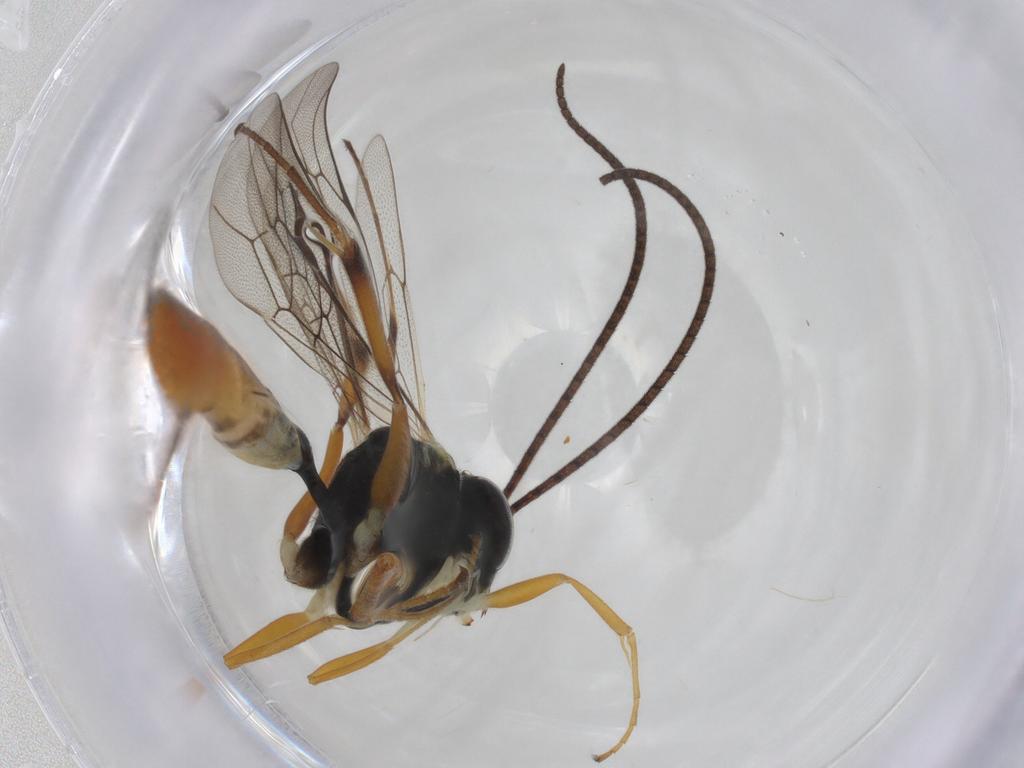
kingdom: Animalia
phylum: Arthropoda
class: Insecta
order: Hymenoptera
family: Ichneumonidae
